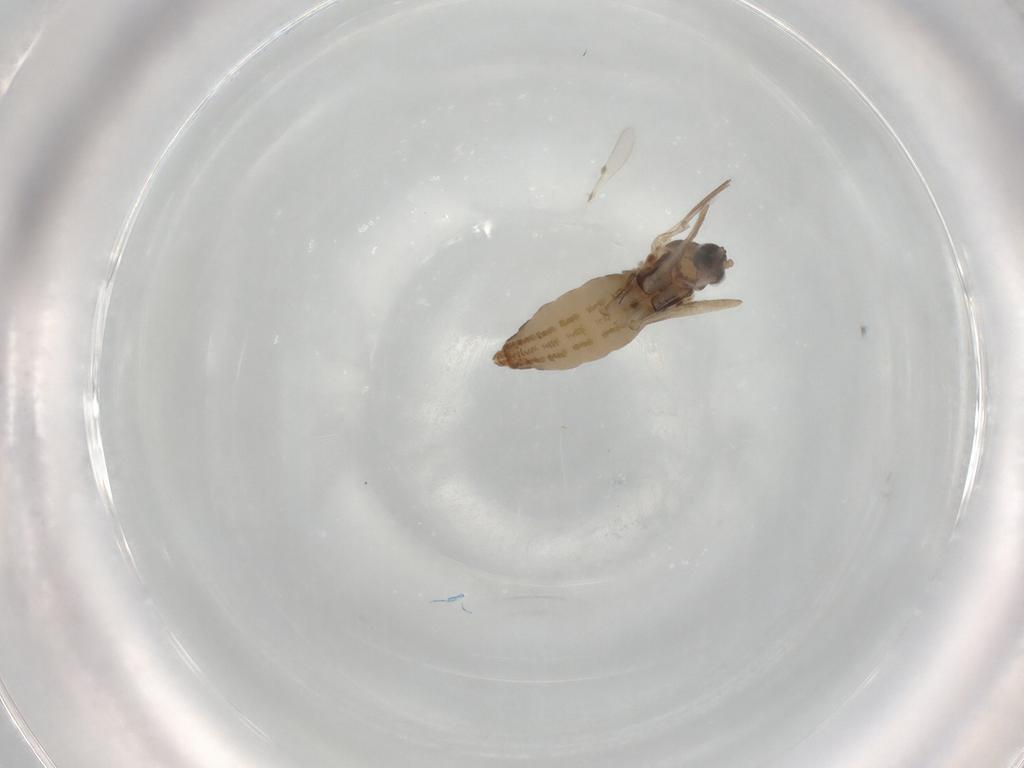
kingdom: Animalia
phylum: Arthropoda
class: Insecta
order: Diptera
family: Cecidomyiidae
